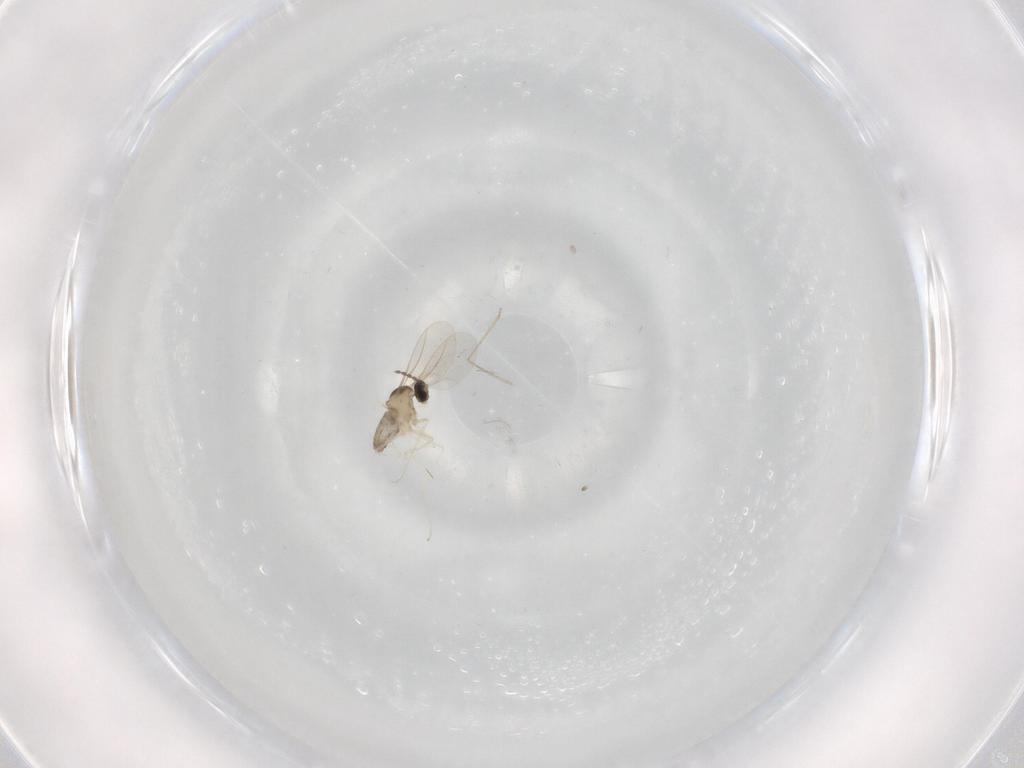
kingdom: Animalia
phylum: Arthropoda
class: Insecta
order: Diptera
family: Cecidomyiidae
